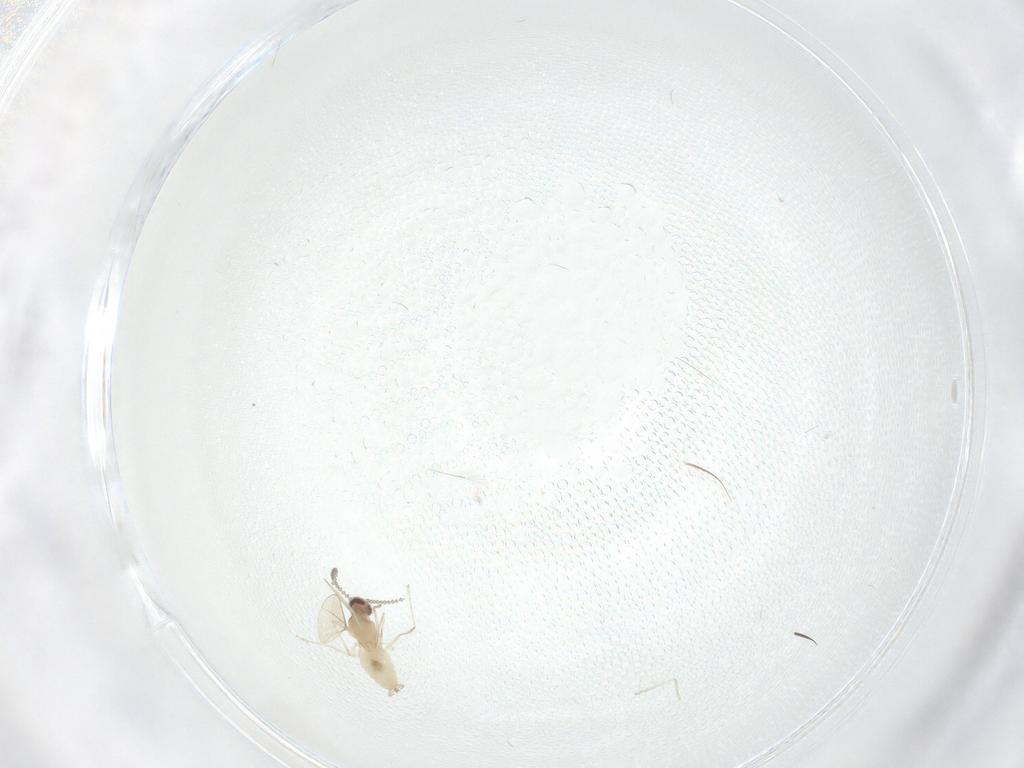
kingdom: Animalia
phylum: Arthropoda
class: Insecta
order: Diptera
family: Cecidomyiidae
